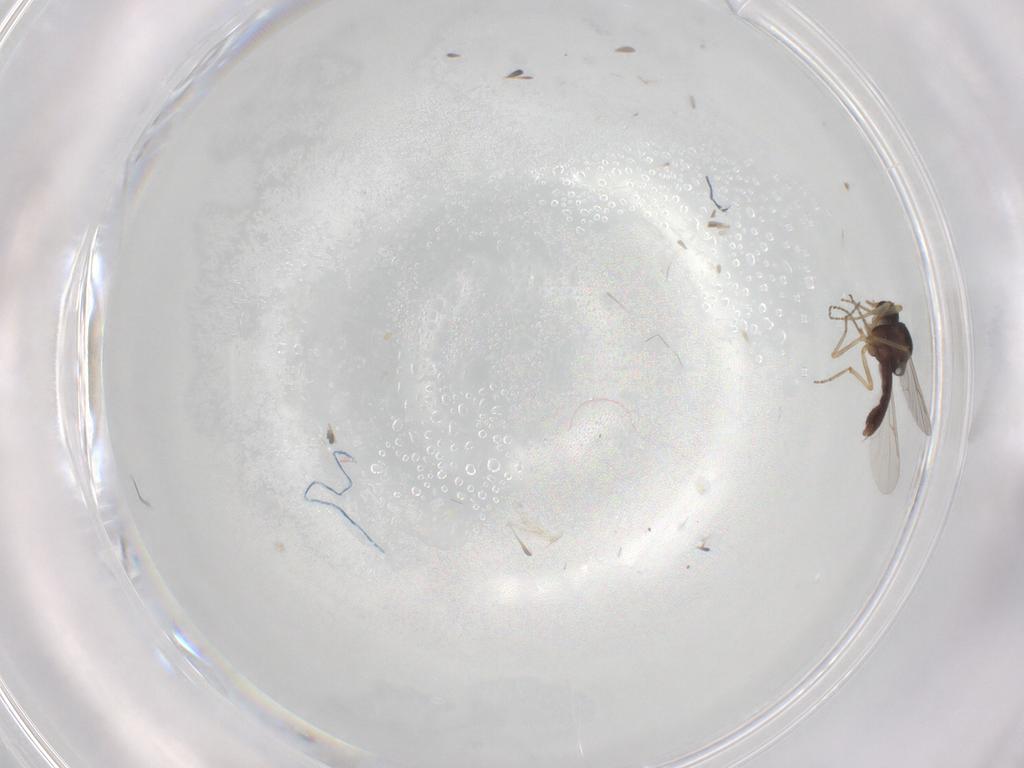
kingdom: Animalia
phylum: Arthropoda
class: Insecta
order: Diptera
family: Ceratopogonidae
